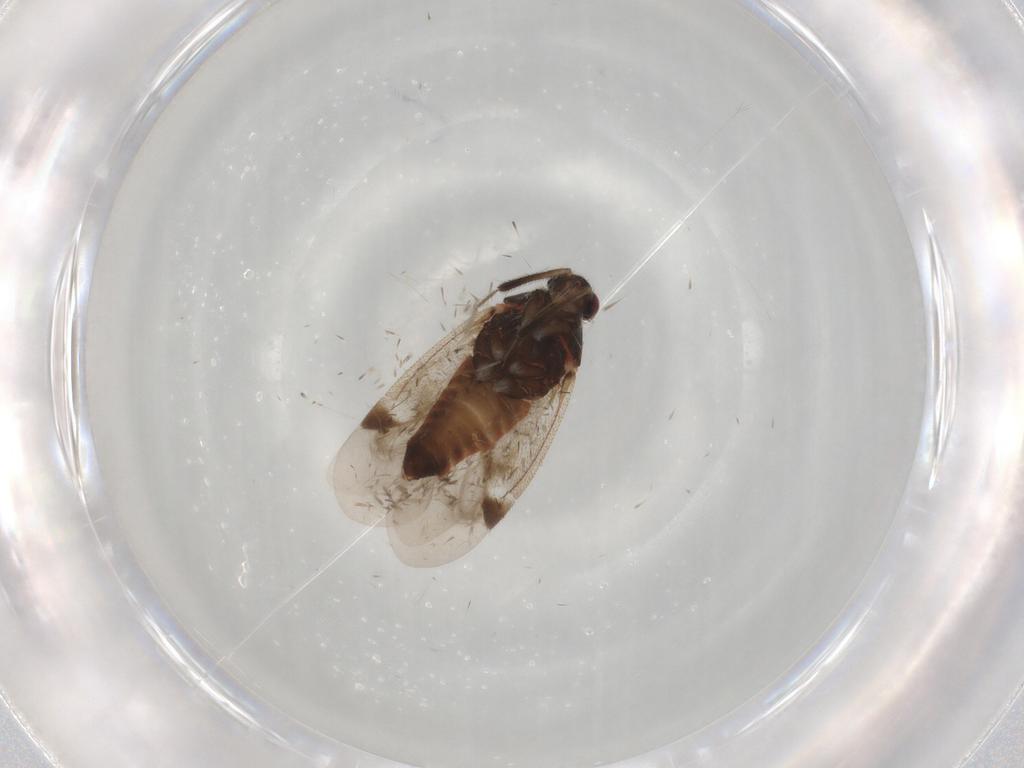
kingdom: Animalia
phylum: Arthropoda
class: Insecta
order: Hemiptera
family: Miridae
